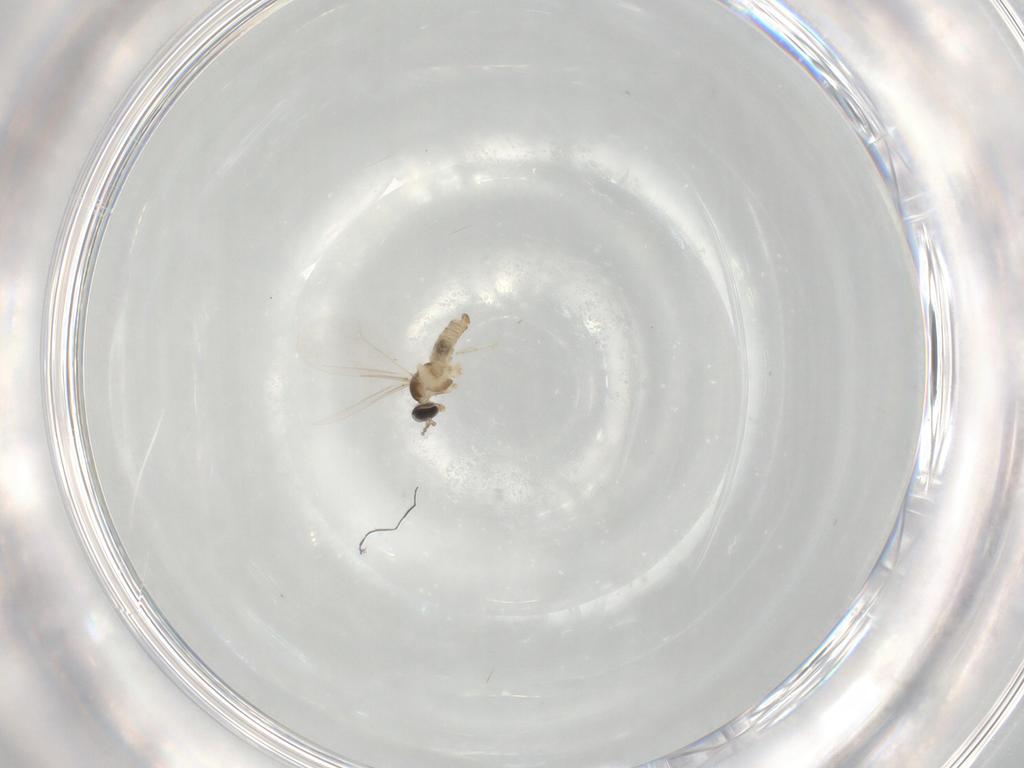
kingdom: Animalia
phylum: Arthropoda
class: Insecta
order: Diptera
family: Cecidomyiidae
